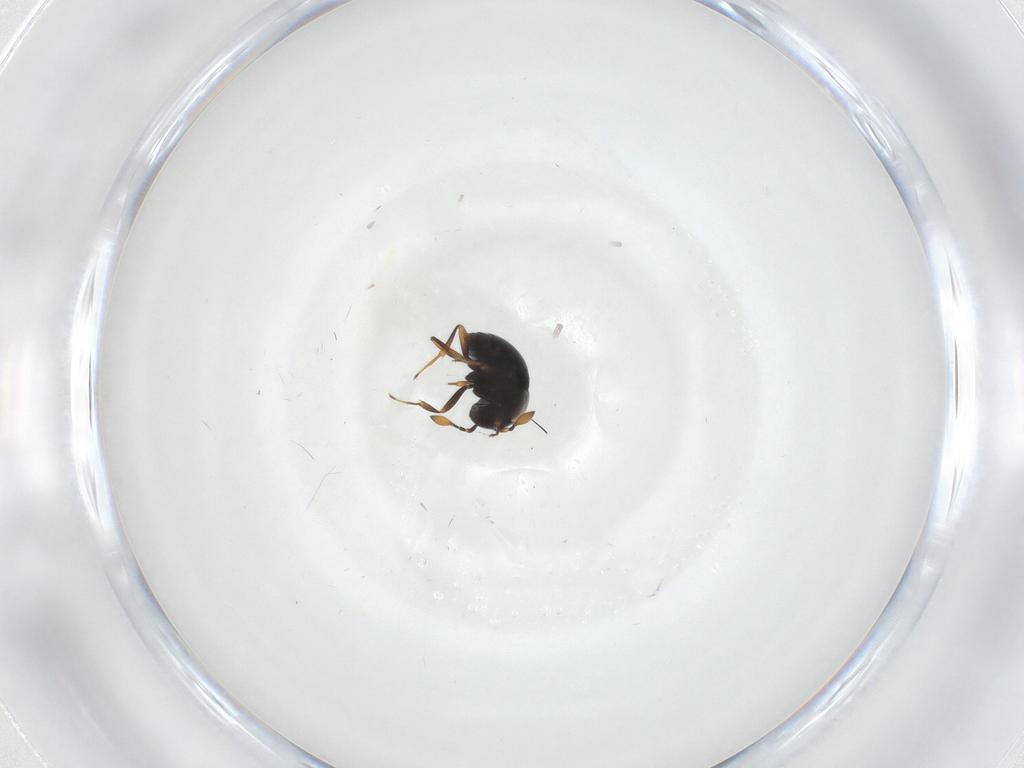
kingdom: Animalia
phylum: Arthropoda
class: Insecta
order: Hymenoptera
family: Scelionidae
